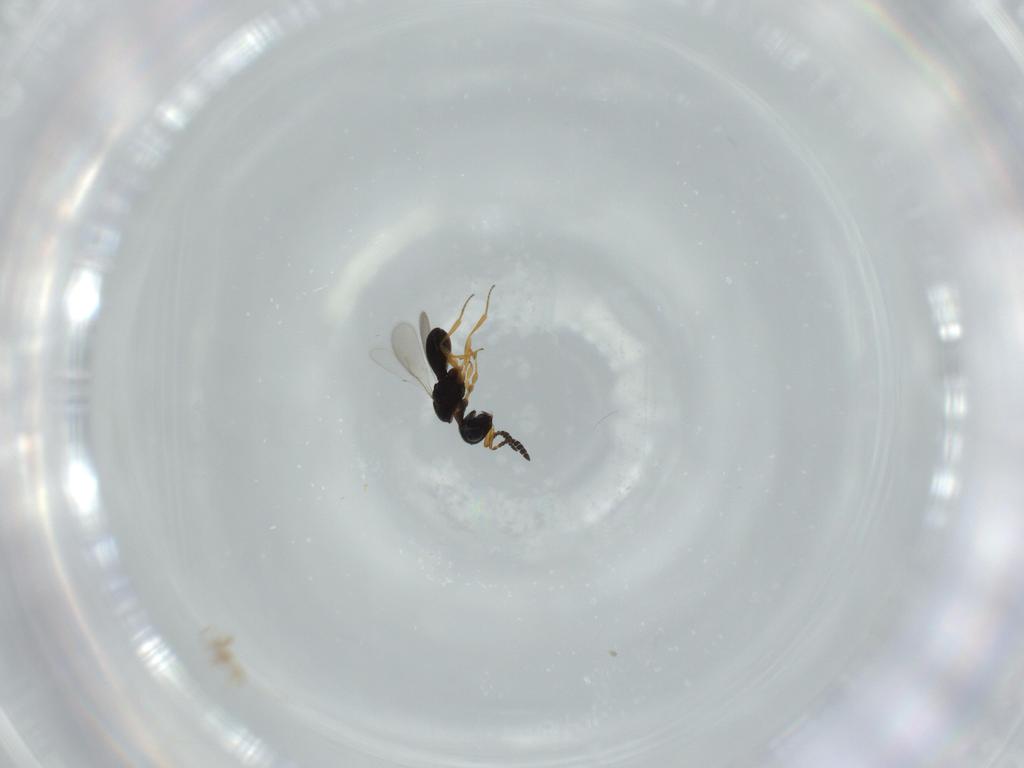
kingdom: Animalia
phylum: Arthropoda
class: Insecta
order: Hymenoptera
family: Scelionidae
